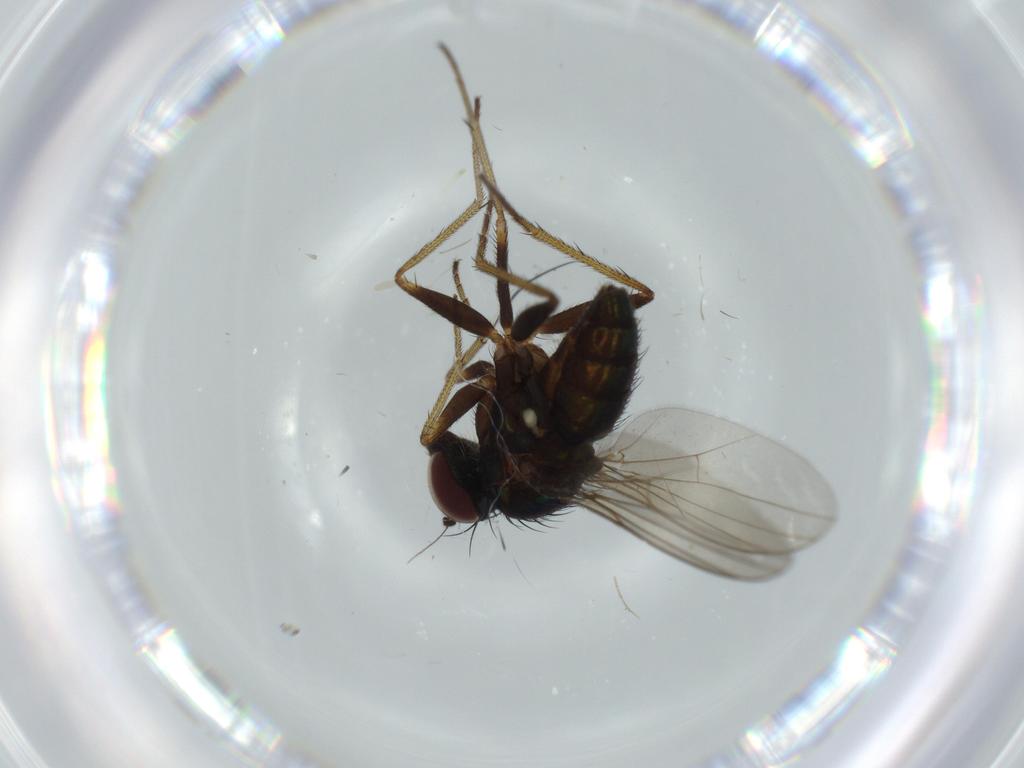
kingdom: Animalia
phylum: Arthropoda
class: Insecta
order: Diptera
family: Dolichopodidae
